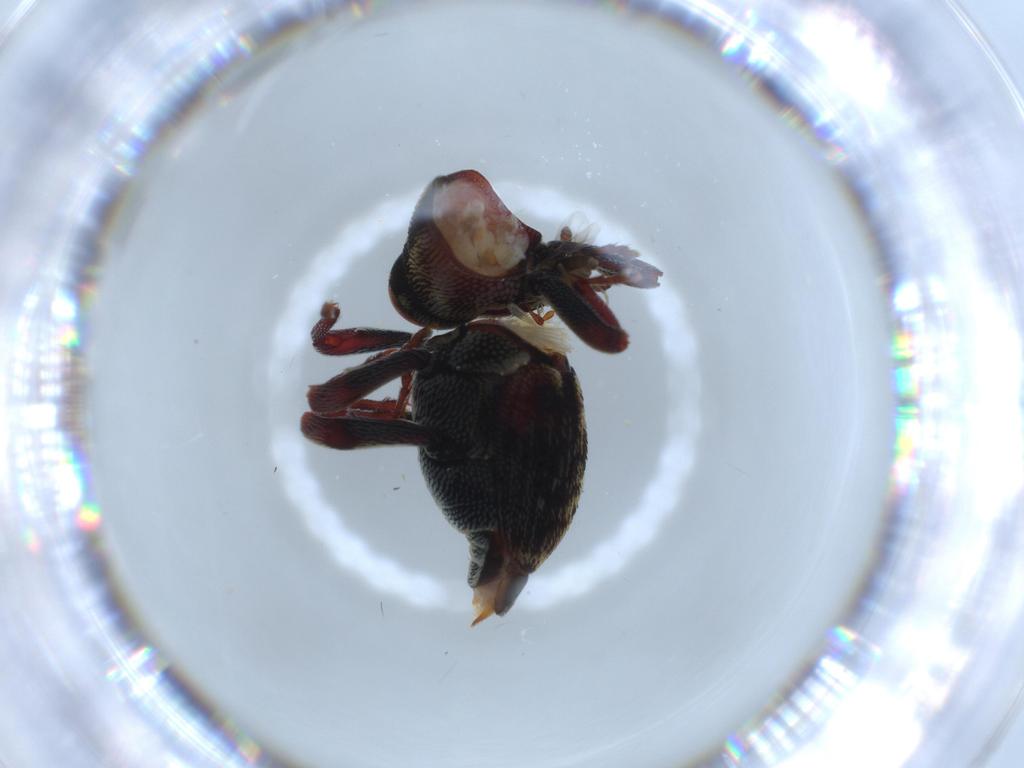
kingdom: Animalia
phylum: Arthropoda
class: Insecta
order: Coleoptera
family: Curculionidae
